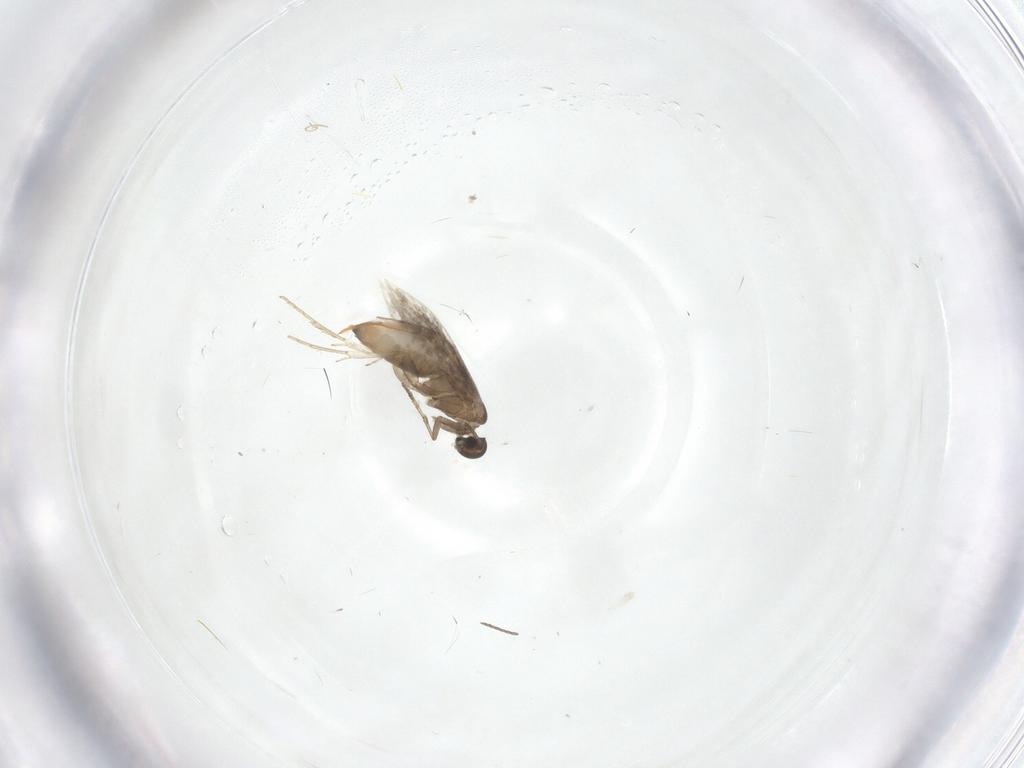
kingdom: Animalia
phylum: Arthropoda
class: Insecta
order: Lepidoptera
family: Heliozelidae
